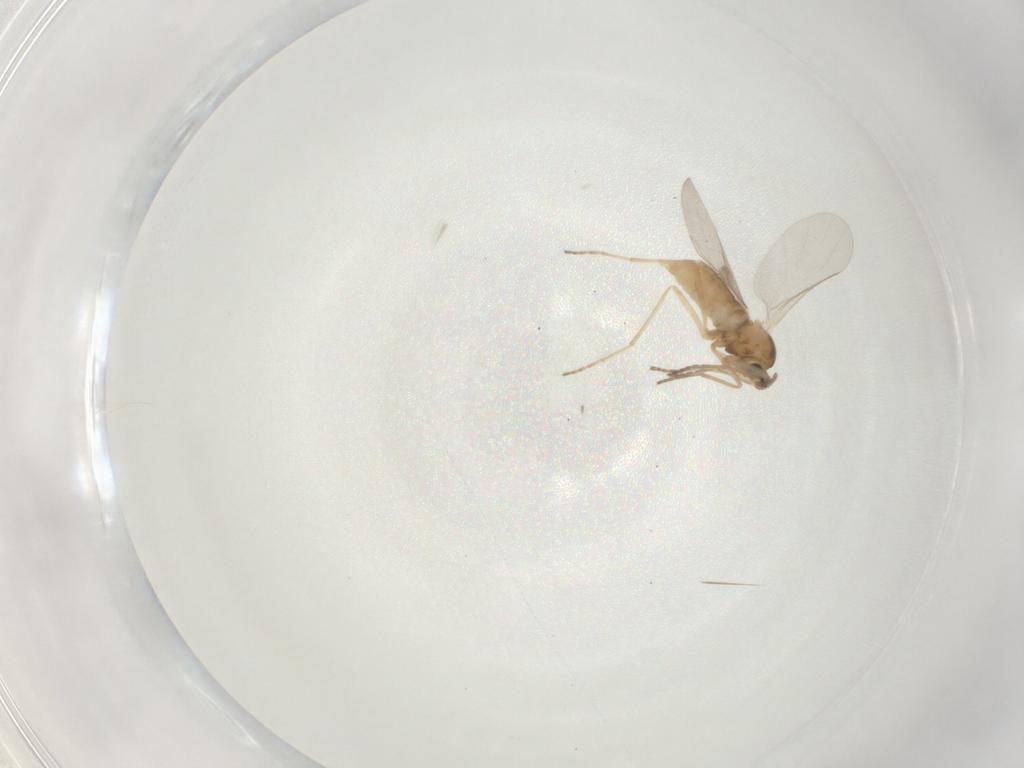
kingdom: Animalia
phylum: Arthropoda
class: Insecta
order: Diptera
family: Cecidomyiidae
